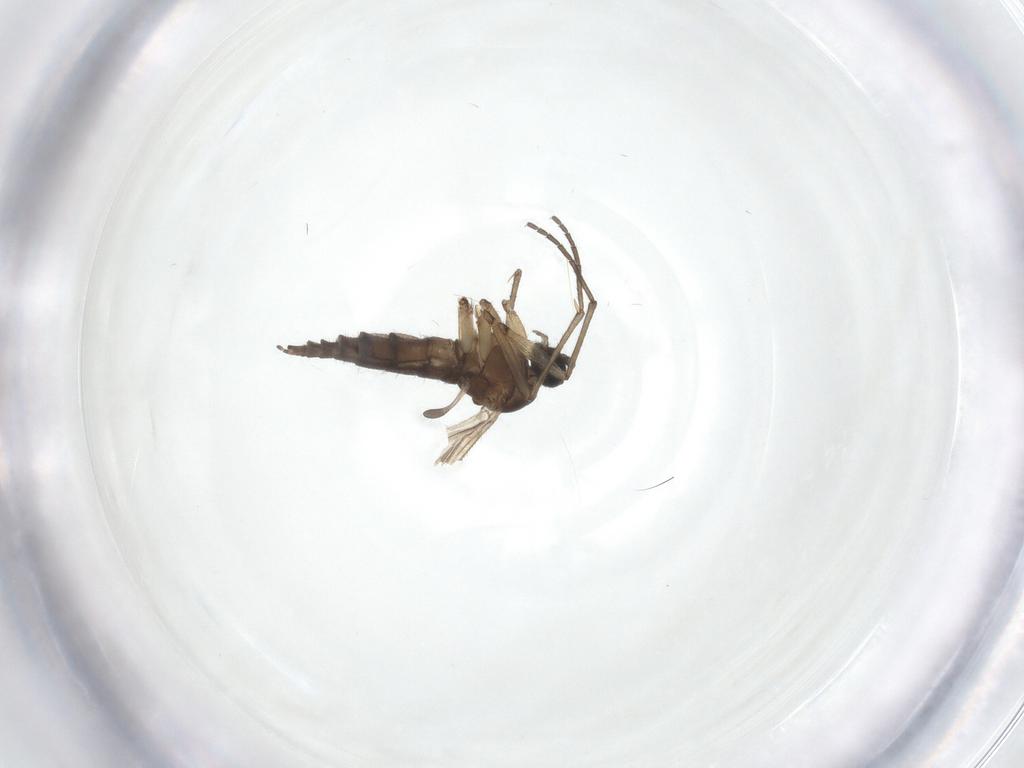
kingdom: Animalia
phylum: Arthropoda
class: Insecta
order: Diptera
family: Sciaridae
